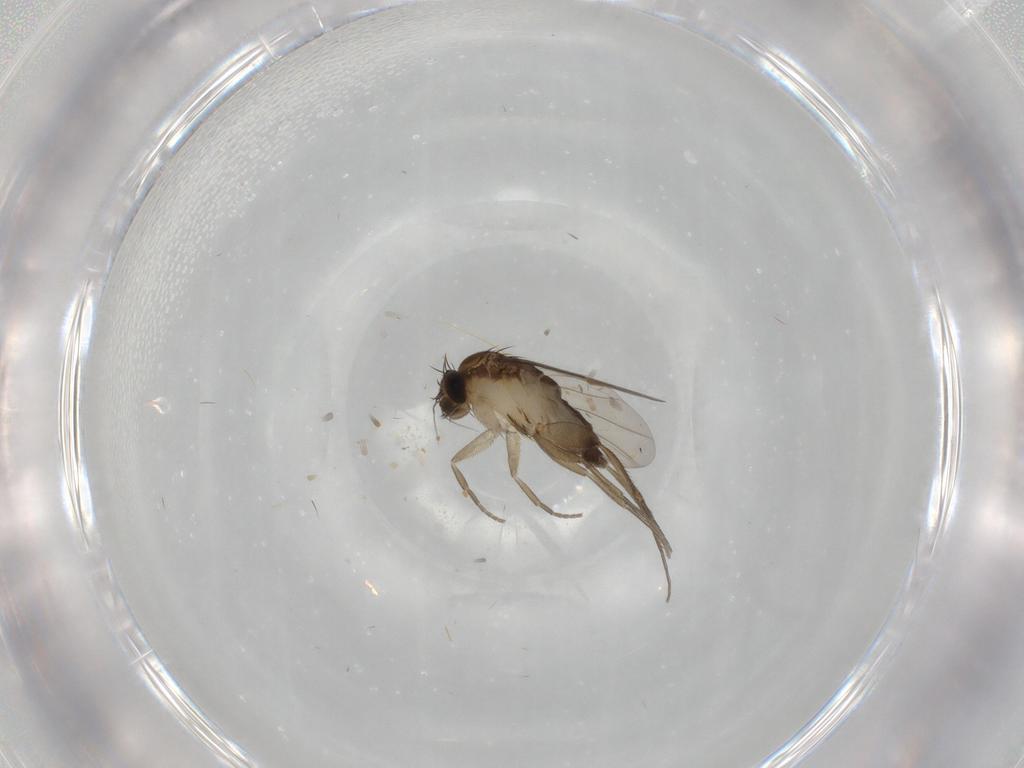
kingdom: Animalia
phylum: Arthropoda
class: Insecta
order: Diptera
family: Phoridae
